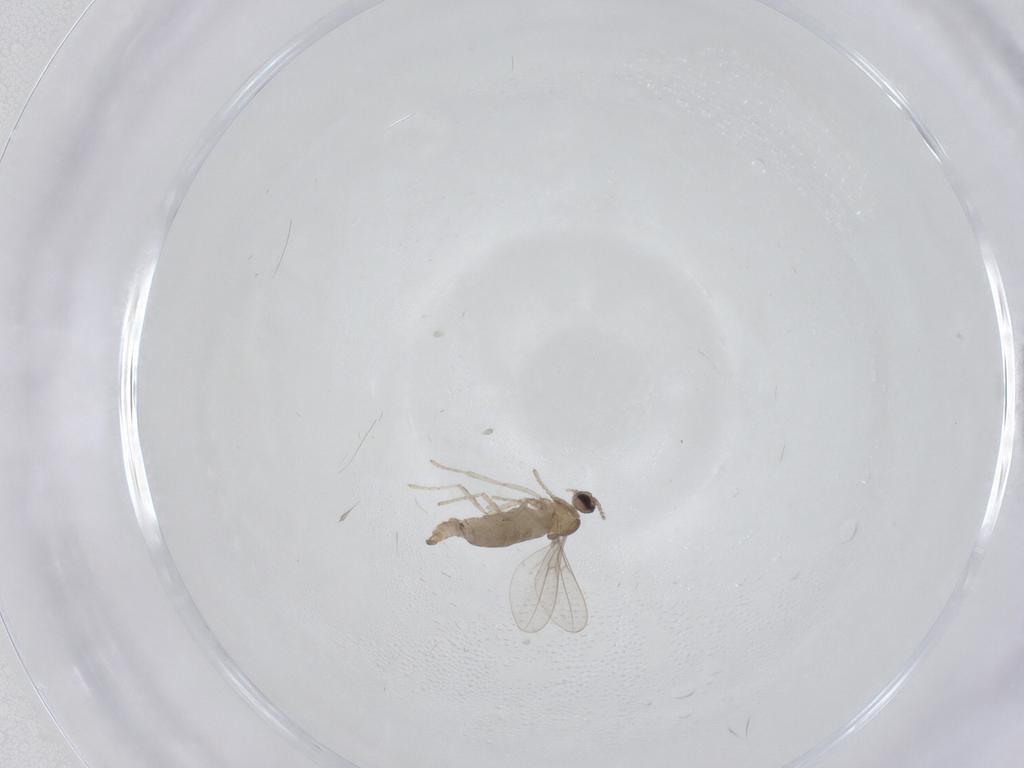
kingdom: Animalia
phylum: Arthropoda
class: Insecta
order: Diptera
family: Cecidomyiidae
